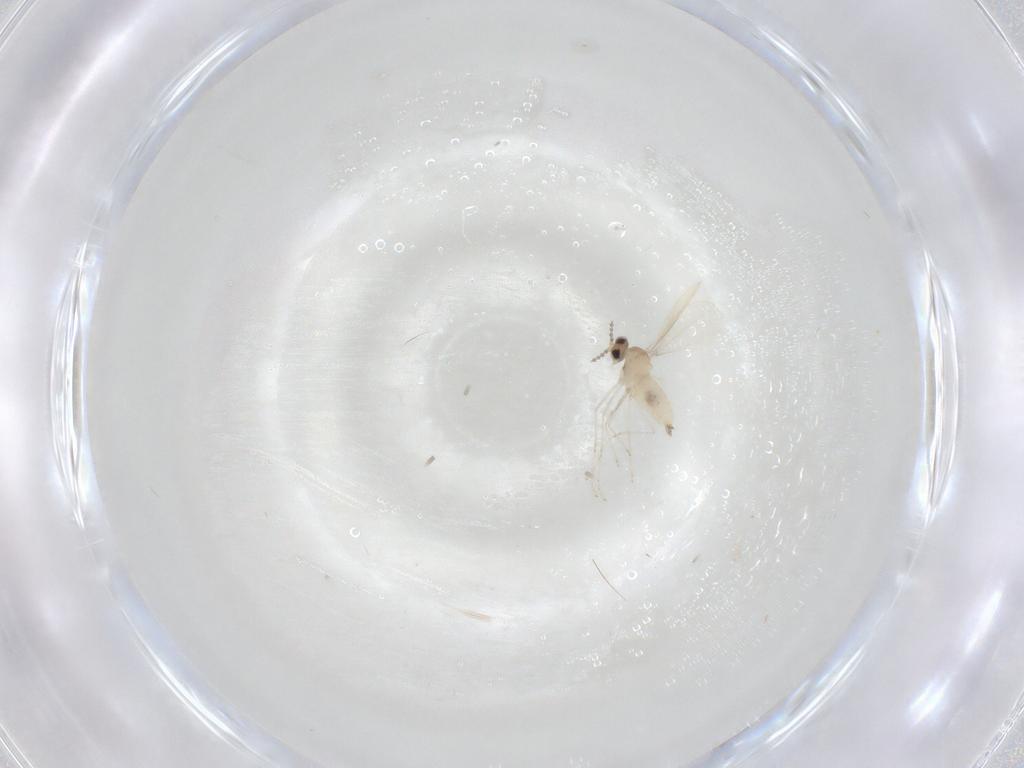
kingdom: Animalia
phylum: Arthropoda
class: Insecta
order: Diptera
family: Cecidomyiidae
